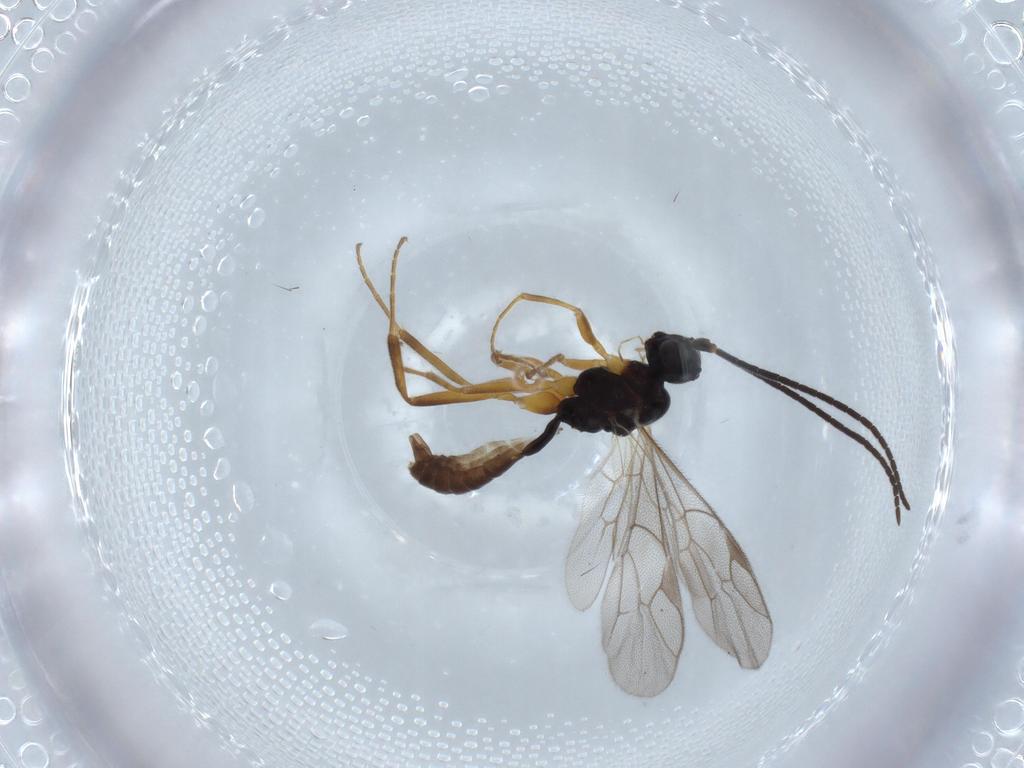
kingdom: Animalia
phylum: Arthropoda
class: Insecta
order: Hymenoptera
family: Ichneumonidae
